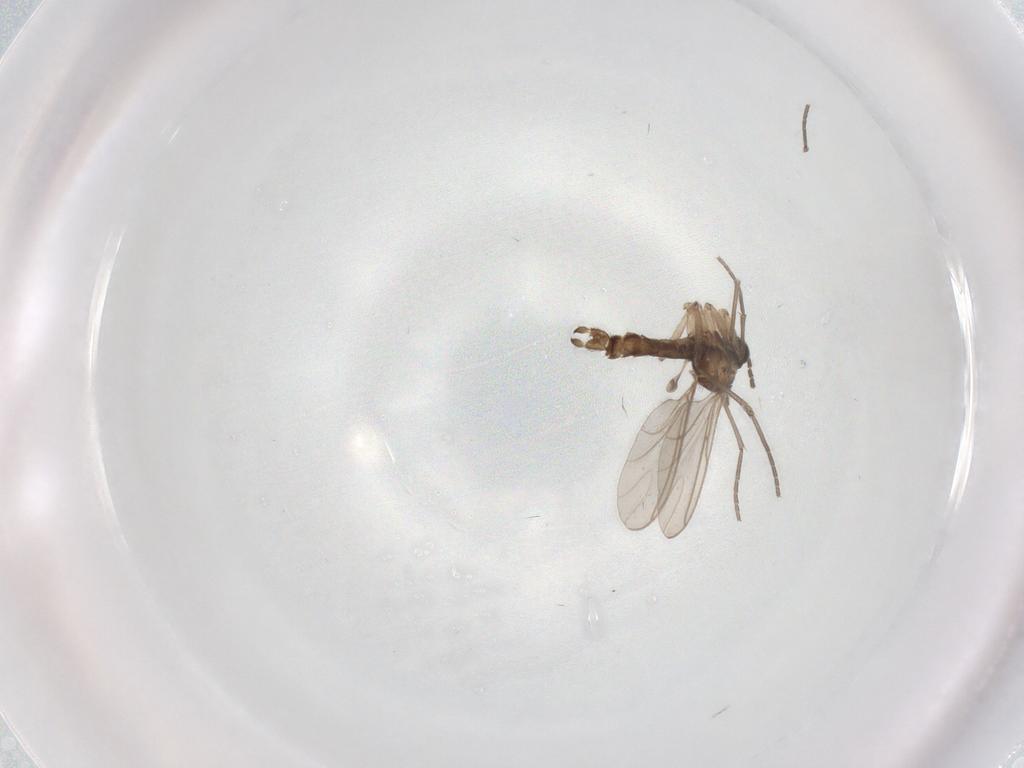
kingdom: Animalia
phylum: Arthropoda
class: Insecta
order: Diptera
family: Sciaridae
